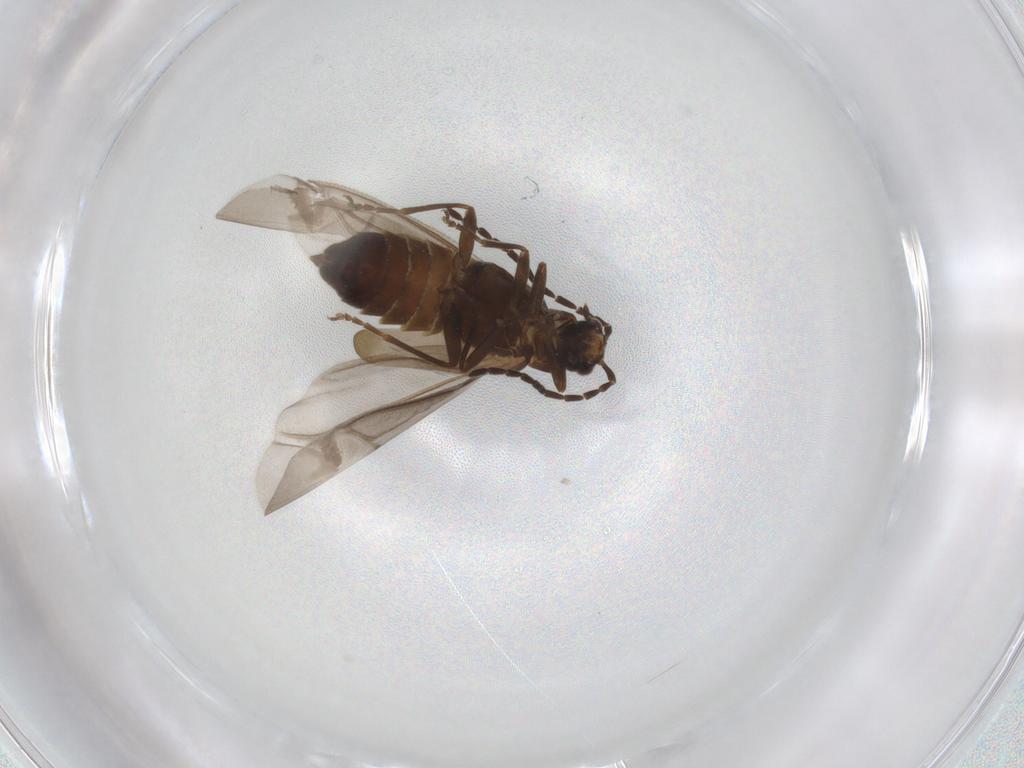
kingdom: Animalia
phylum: Arthropoda
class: Insecta
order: Coleoptera
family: Cantharidae
